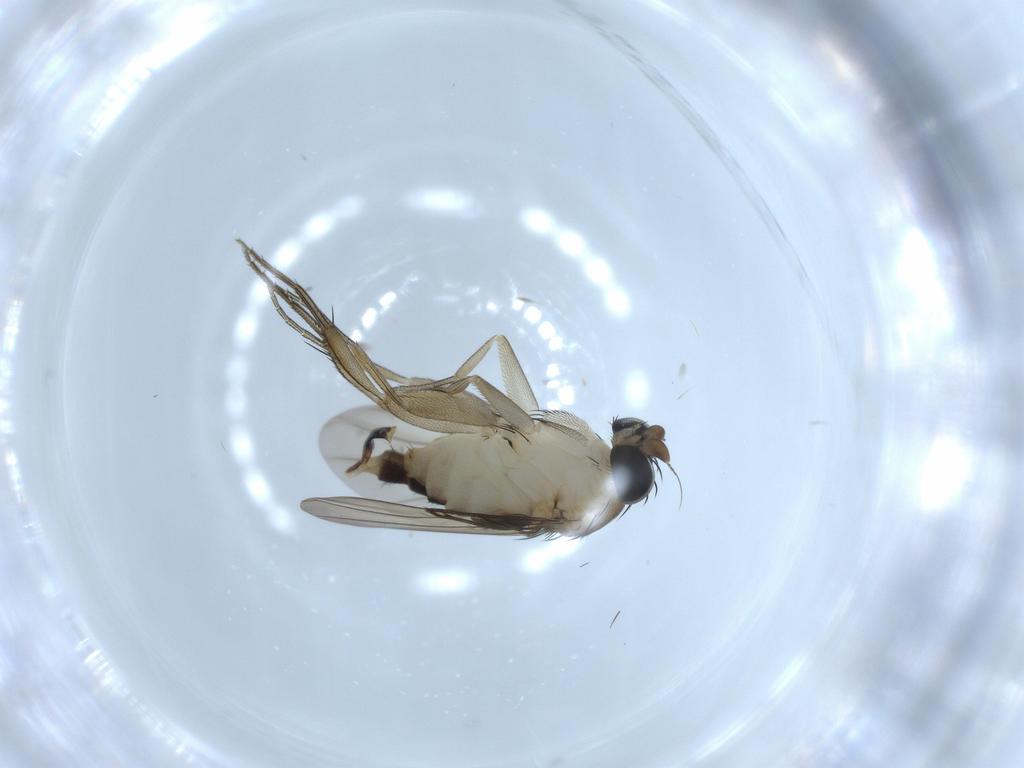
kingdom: Animalia
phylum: Arthropoda
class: Insecta
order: Diptera
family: Phoridae
